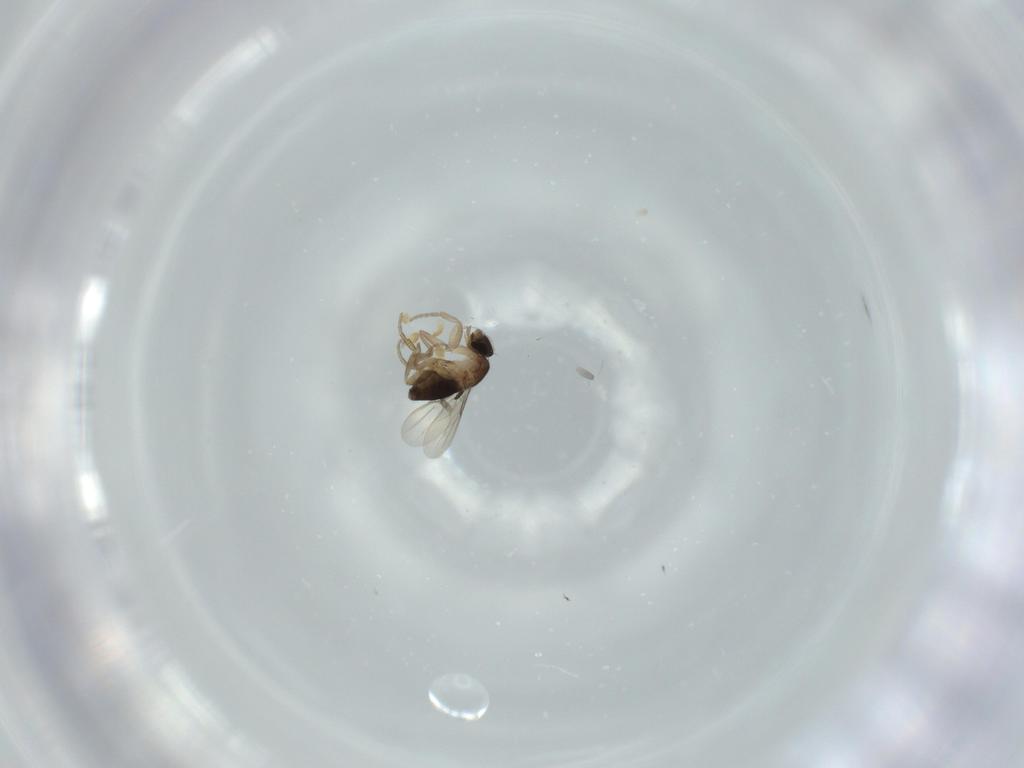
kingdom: Animalia
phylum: Arthropoda
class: Insecta
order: Diptera
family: Phoridae
